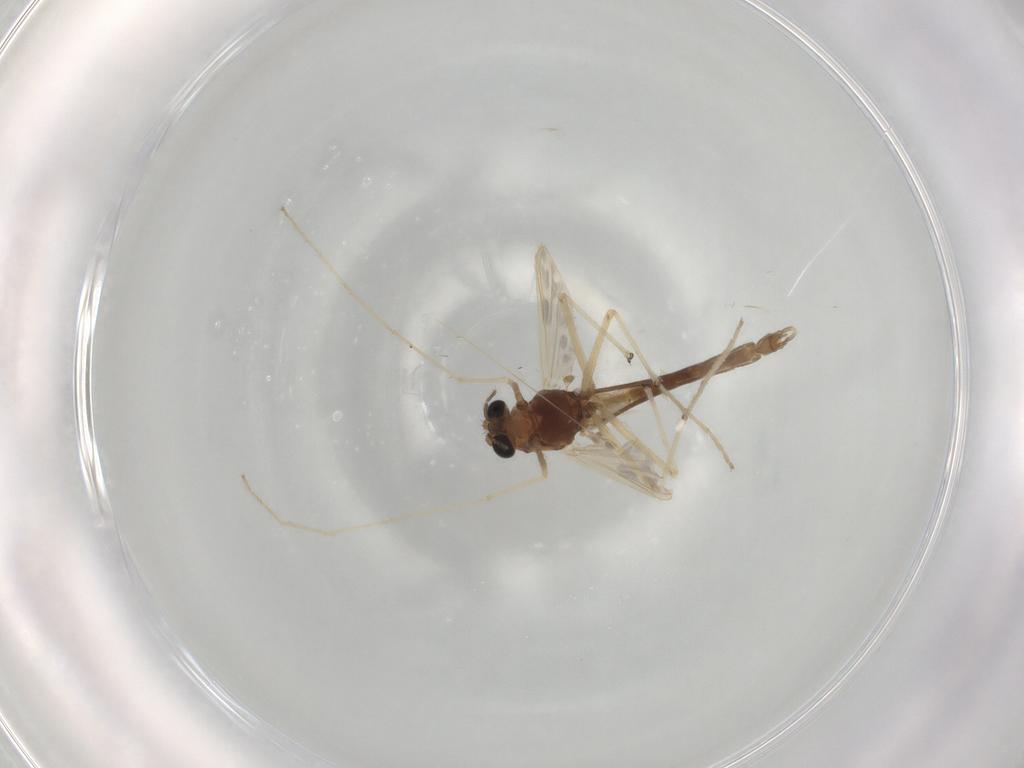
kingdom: Animalia
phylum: Arthropoda
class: Insecta
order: Diptera
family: Chironomidae
